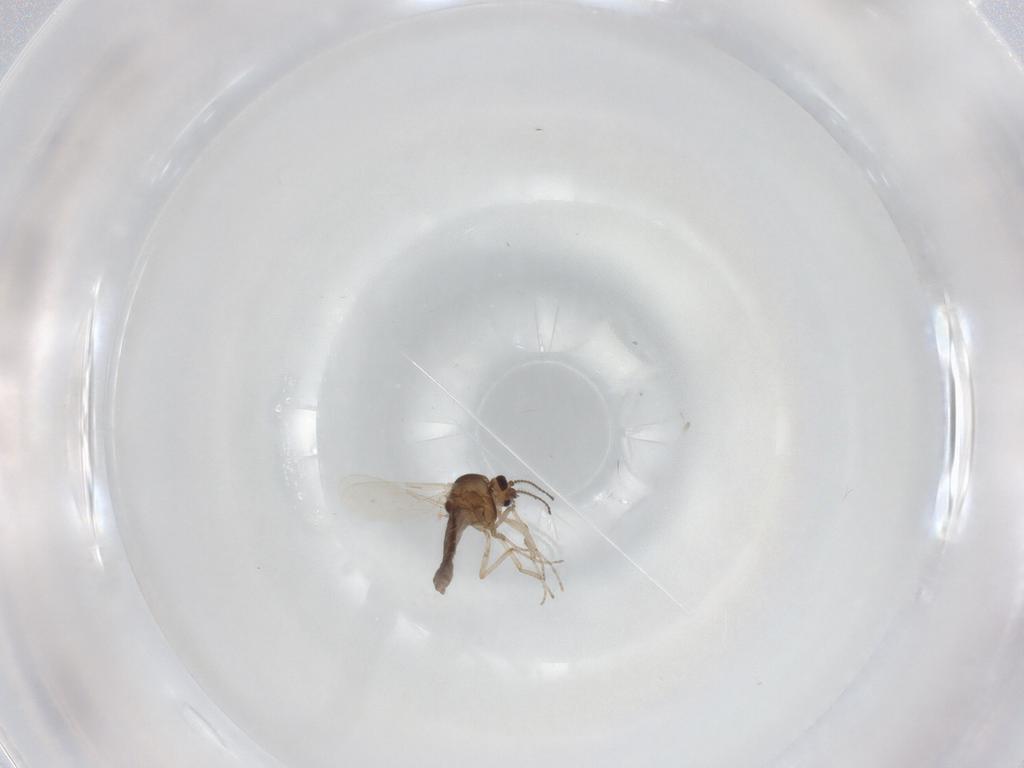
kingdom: Animalia
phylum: Arthropoda
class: Insecta
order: Diptera
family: Ceratopogonidae
